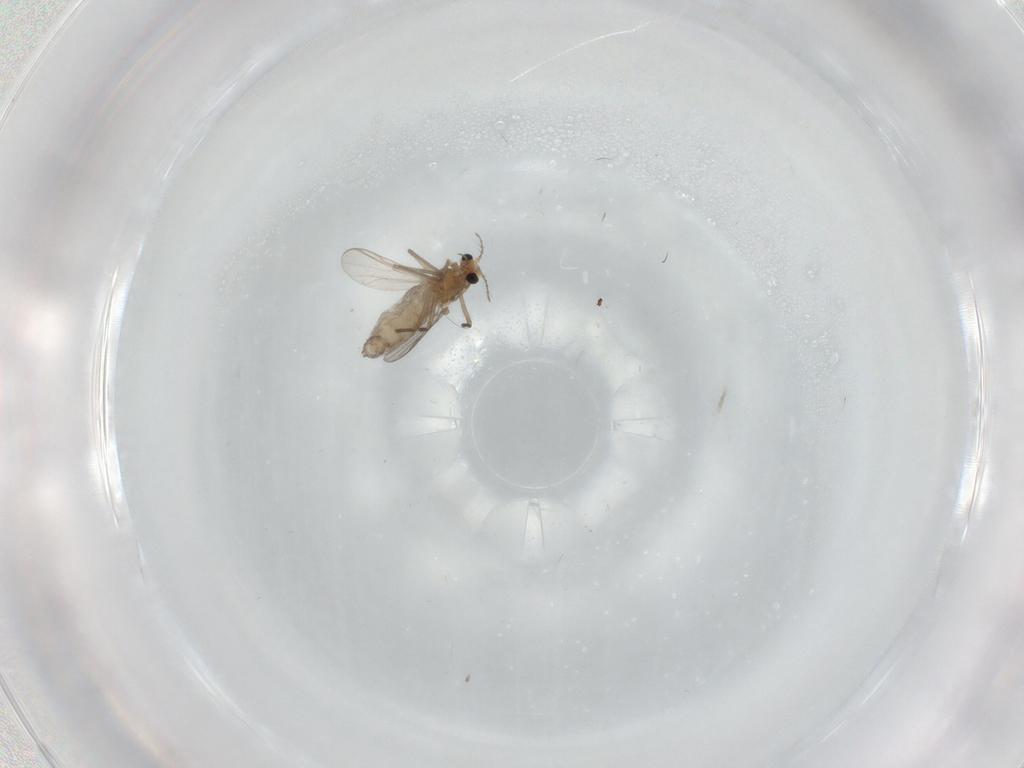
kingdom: Animalia
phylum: Arthropoda
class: Insecta
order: Diptera
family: Chironomidae
